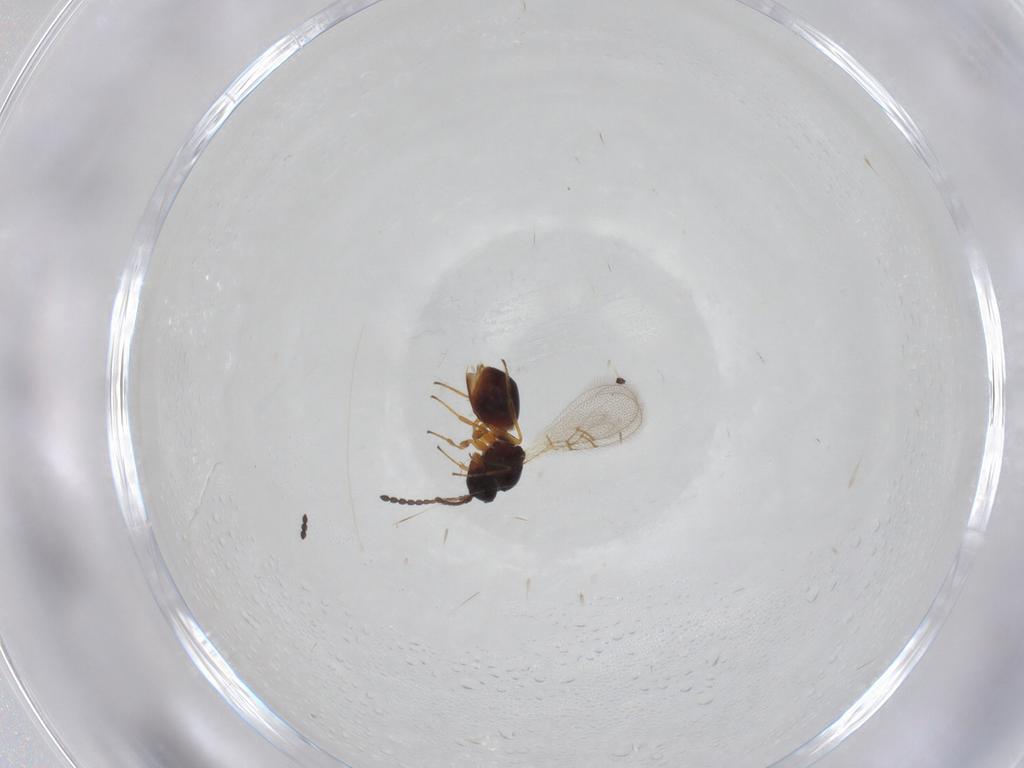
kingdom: Animalia
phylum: Arthropoda
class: Insecta
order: Hymenoptera
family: Figitidae
